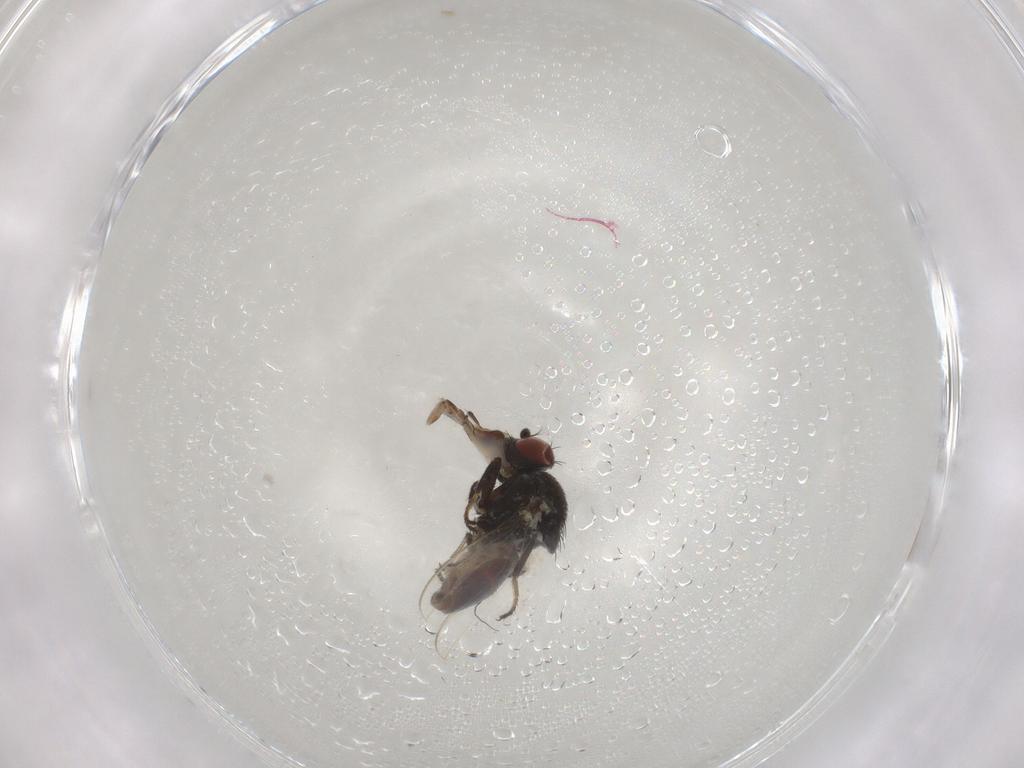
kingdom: Animalia
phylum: Arthropoda
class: Insecta
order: Diptera
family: Ephydridae
